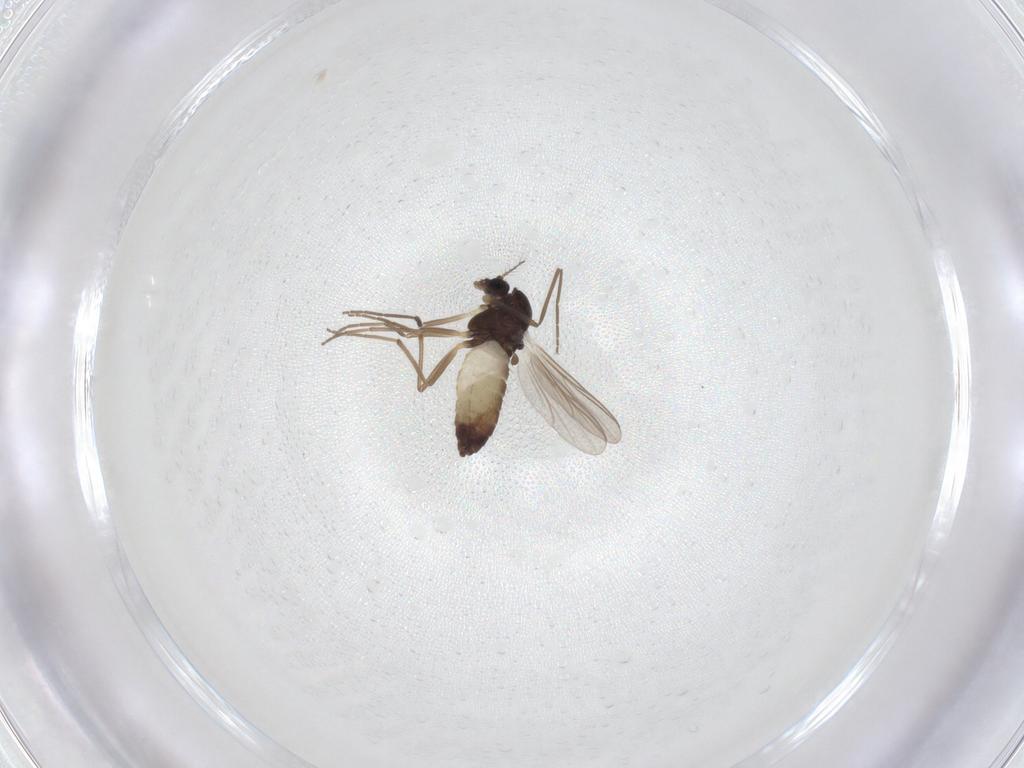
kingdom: Animalia
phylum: Arthropoda
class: Insecta
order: Diptera
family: Chironomidae
